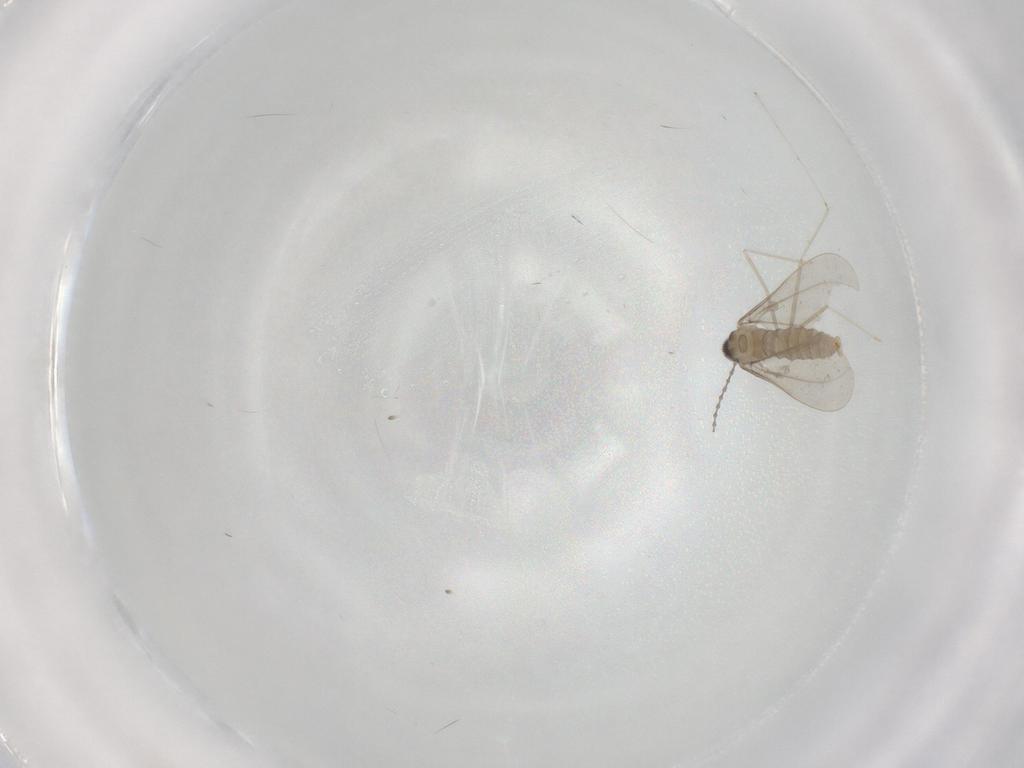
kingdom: Animalia
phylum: Arthropoda
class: Insecta
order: Diptera
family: Cecidomyiidae
